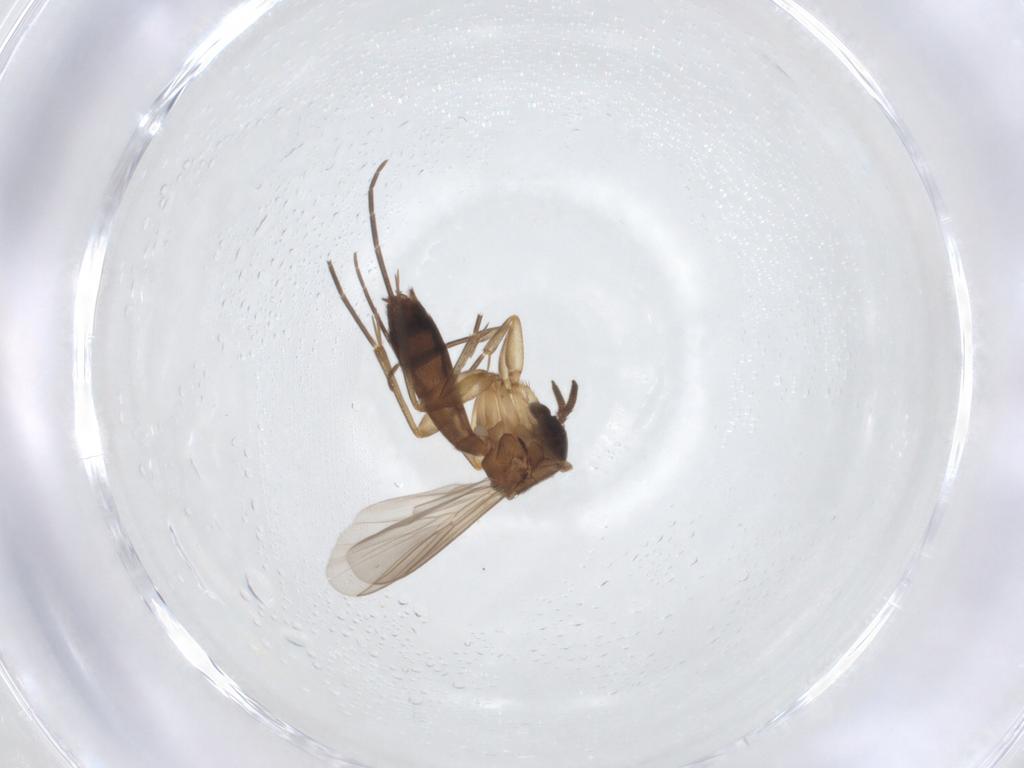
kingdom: Animalia
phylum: Arthropoda
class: Insecta
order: Diptera
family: Mycetophilidae
